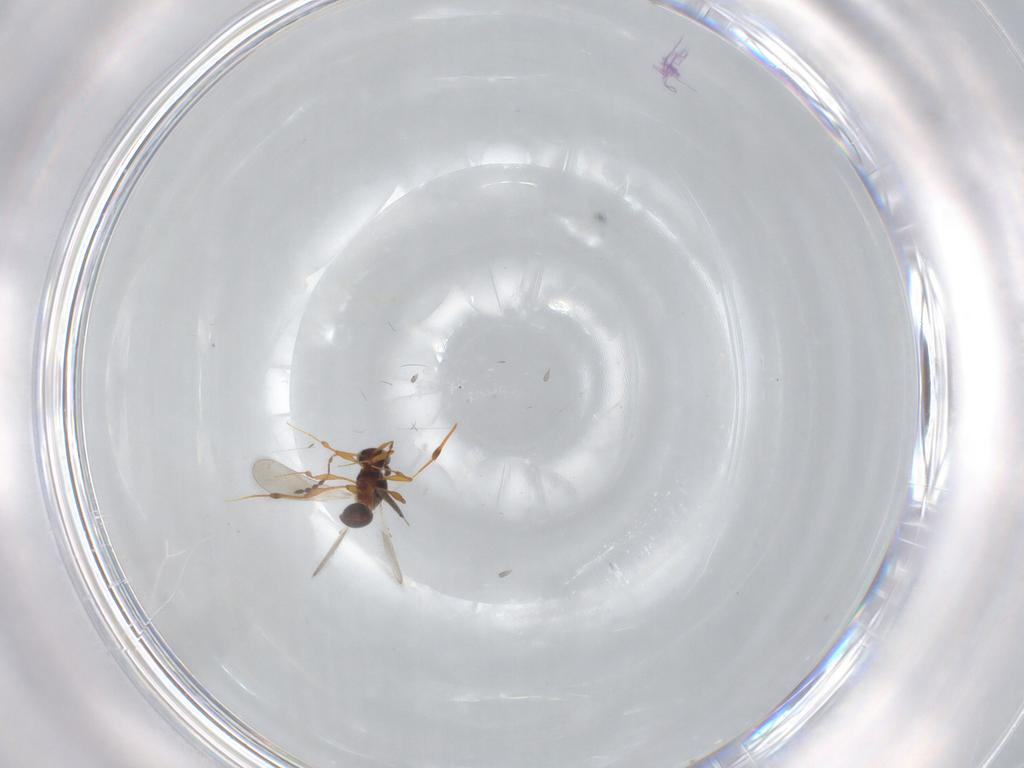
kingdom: Animalia
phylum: Arthropoda
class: Insecta
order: Hymenoptera
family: Platygastridae
